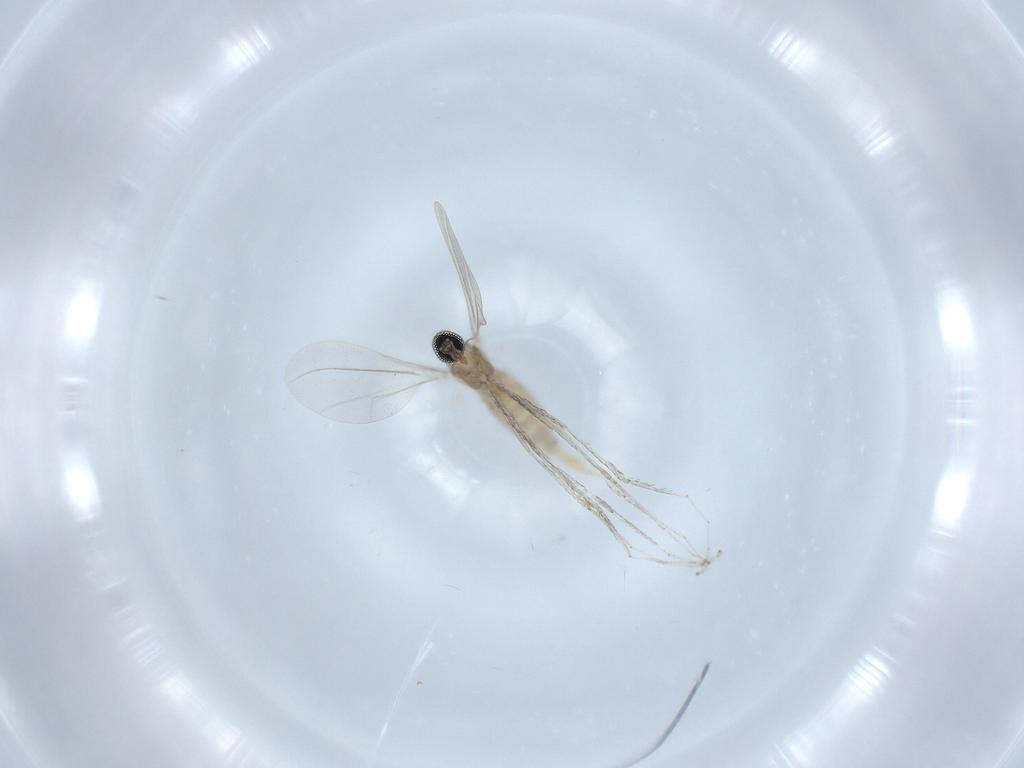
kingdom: Animalia
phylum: Arthropoda
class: Insecta
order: Diptera
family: Cecidomyiidae
